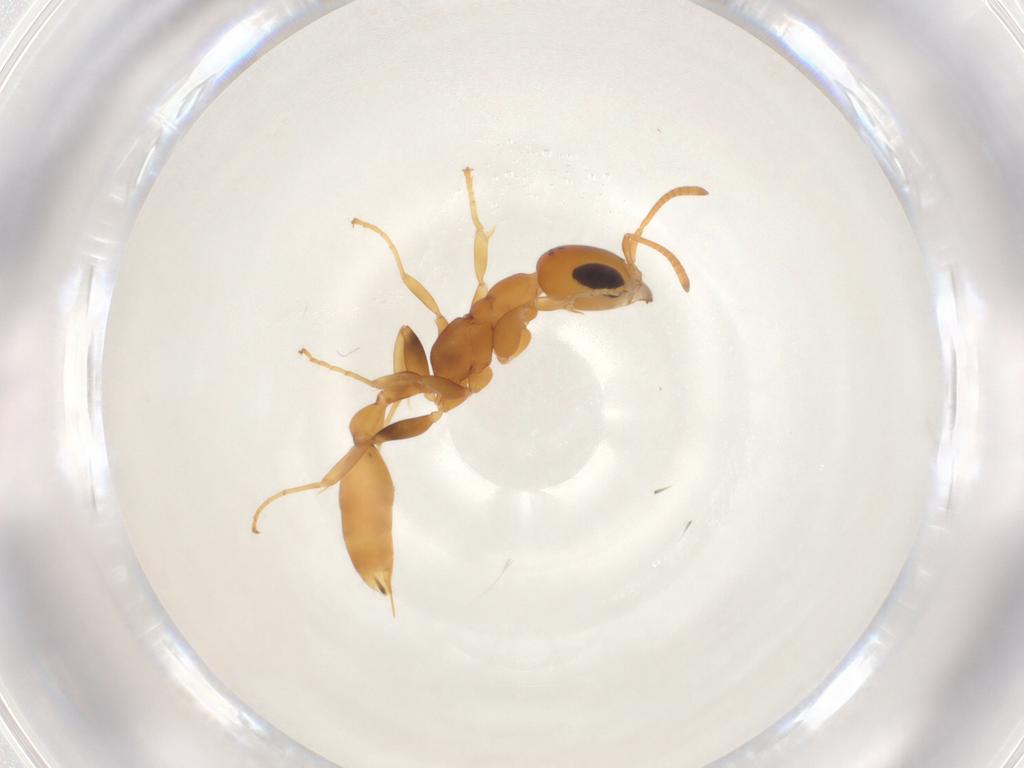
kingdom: Animalia
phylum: Arthropoda
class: Insecta
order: Hymenoptera
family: Formicidae
